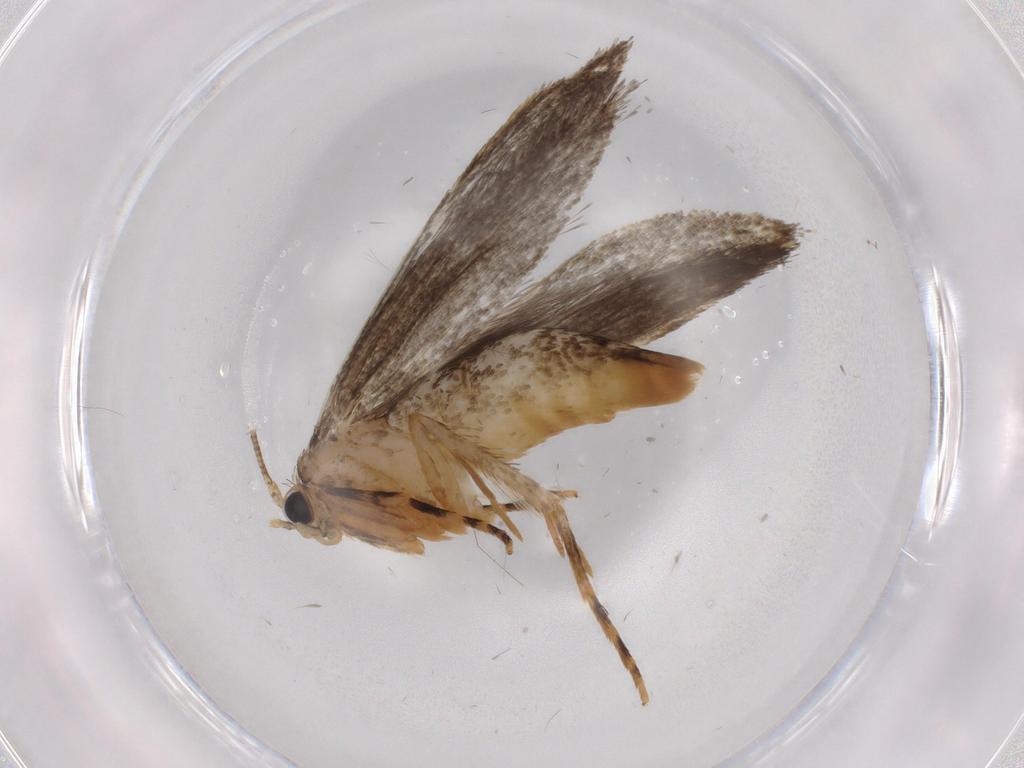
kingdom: Animalia
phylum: Arthropoda
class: Insecta
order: Lepidoptera
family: Tineidae
